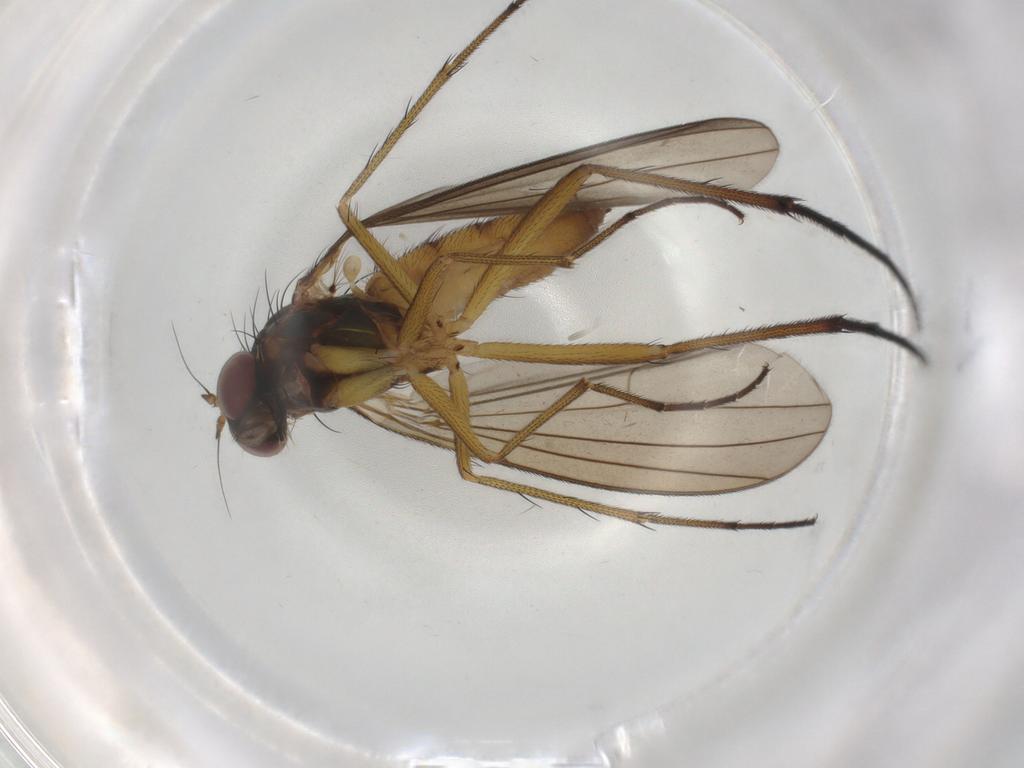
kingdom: Animalia
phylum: Arthropoda
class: Insecta
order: Diptera
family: Dolichopodidae
